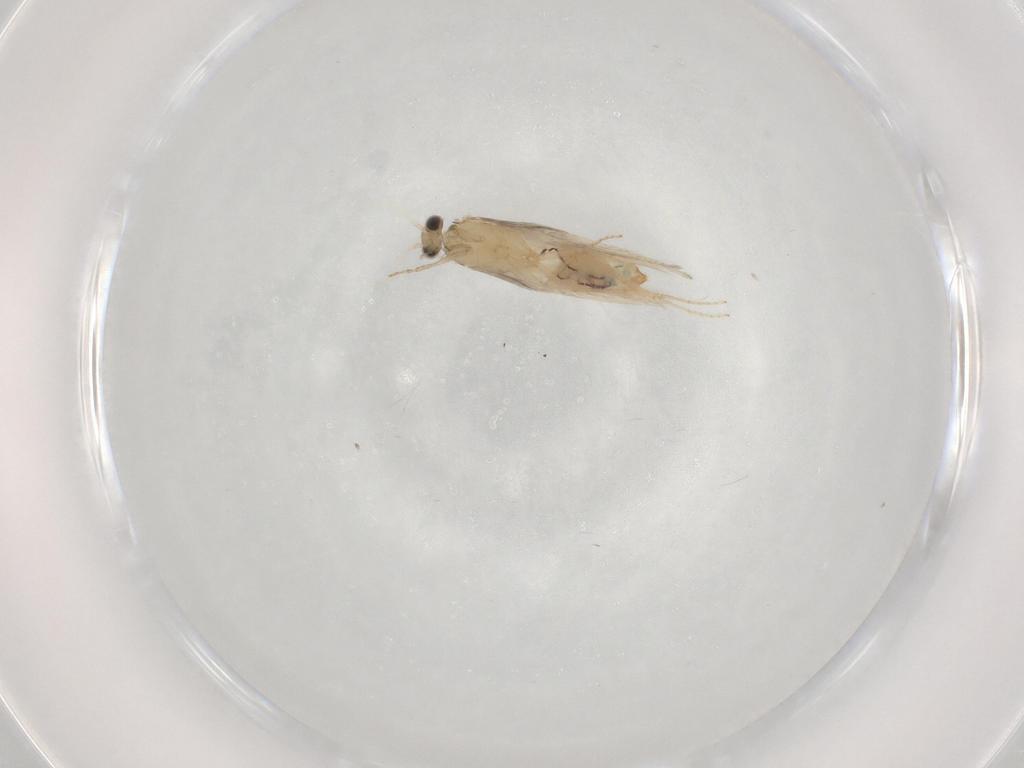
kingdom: Animalia
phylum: Arthropoda
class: Insecta
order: Trichoptera
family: Hydroptilidae
